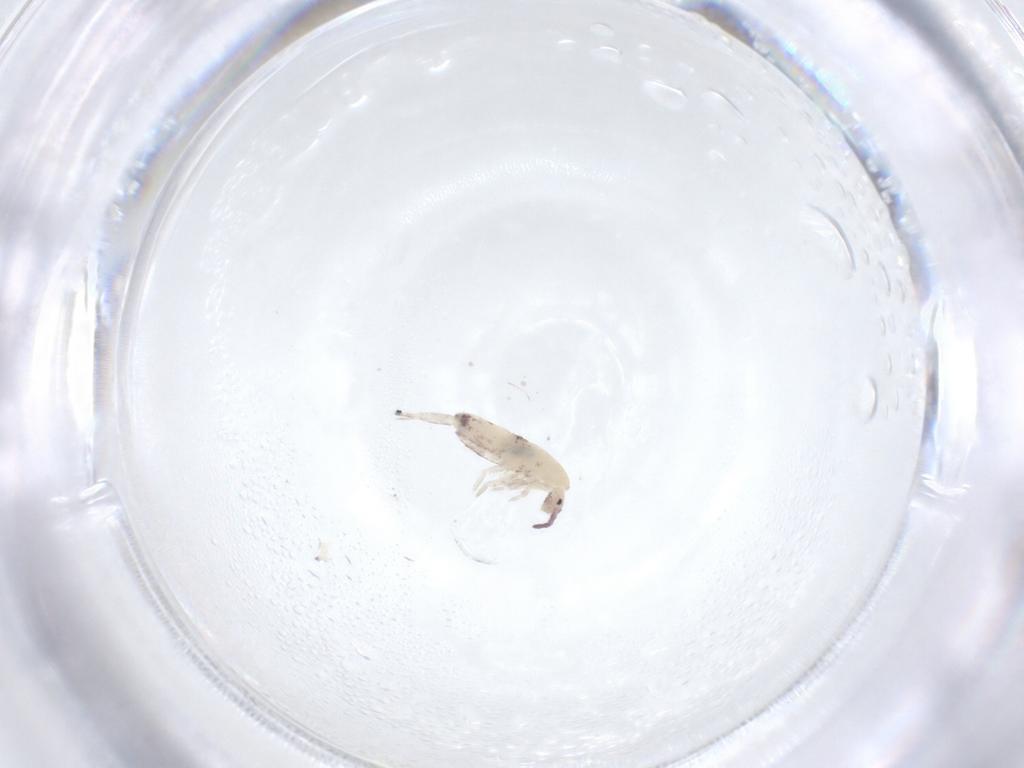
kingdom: Animalia
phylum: Arthropoda
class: Collembola
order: Entomobryomorpha
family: Entomobryidae
